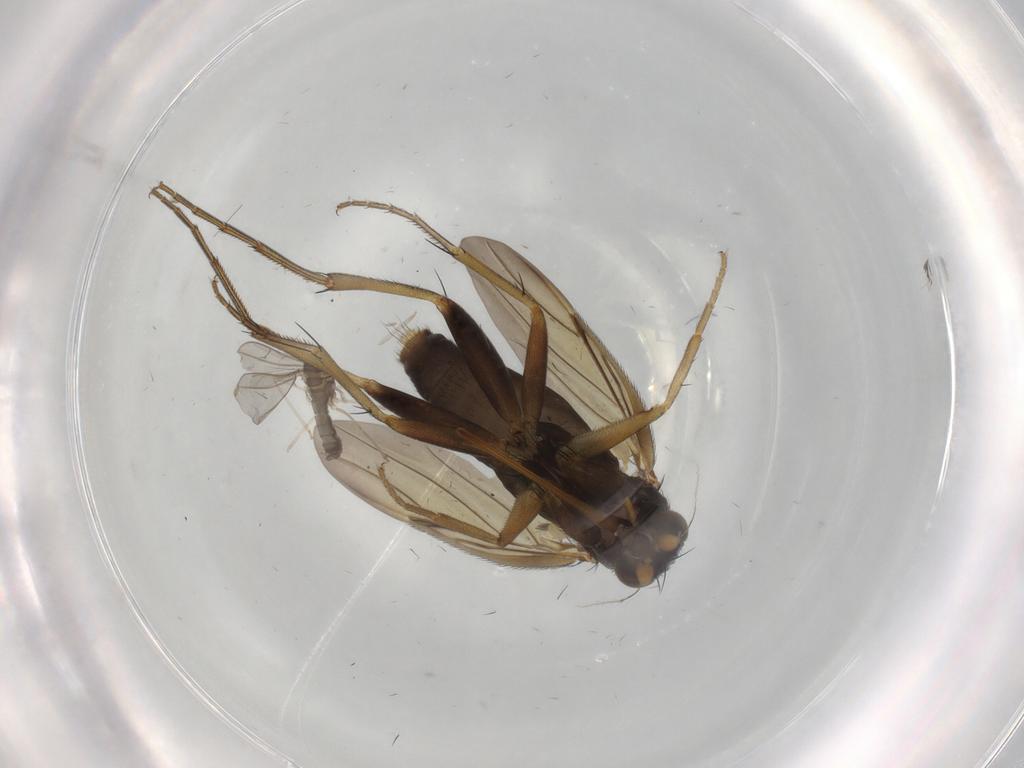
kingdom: Animalia
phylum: Arthropoda
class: Insecta
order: Diptera
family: Phoridae
